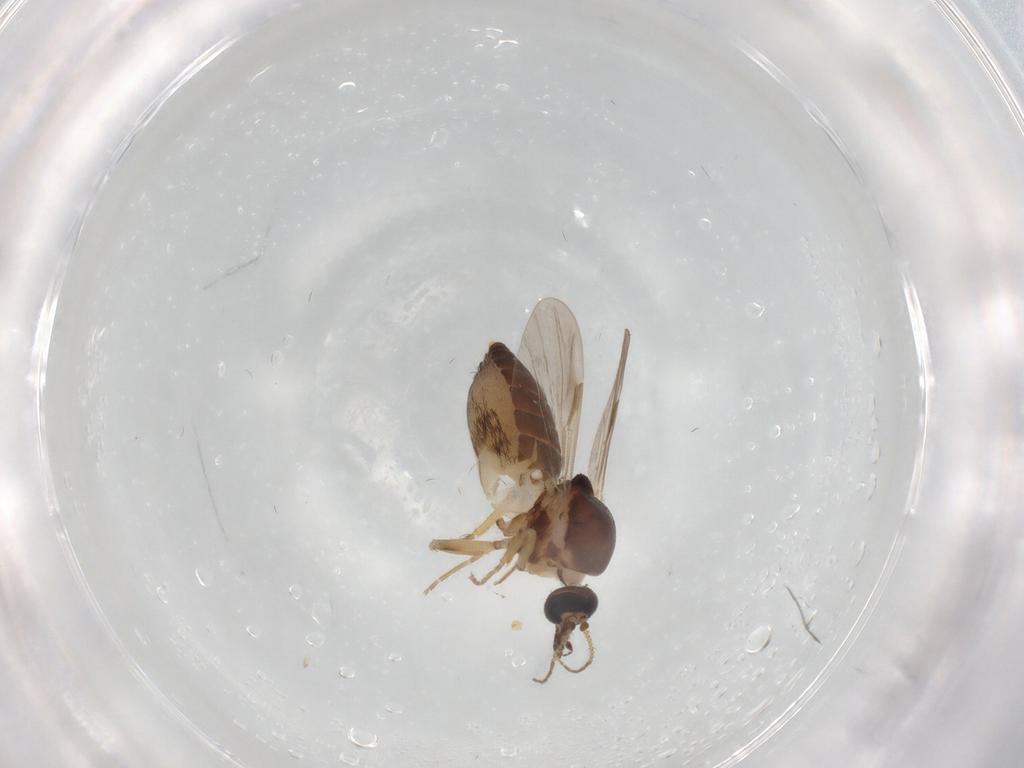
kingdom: Animalia
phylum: Arthropoda
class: Insecta
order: Diptera
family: Ceratopogonidae
